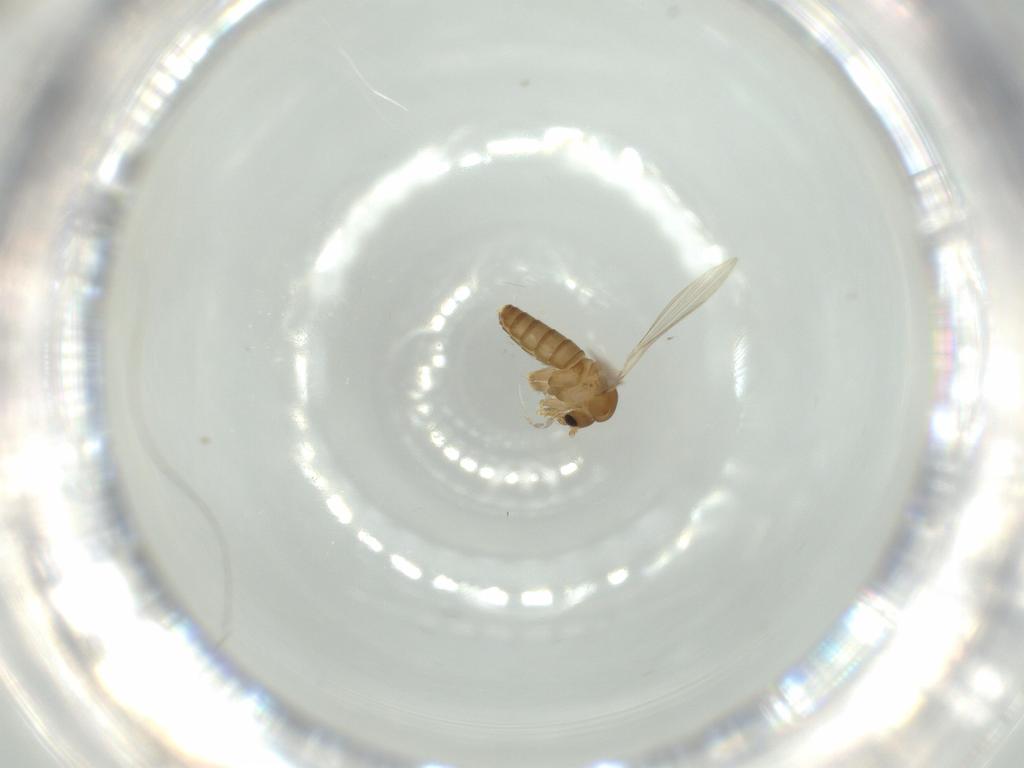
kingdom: Animalia
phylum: Arthropoda
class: Insecta
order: Diptera
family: Psychodidae
